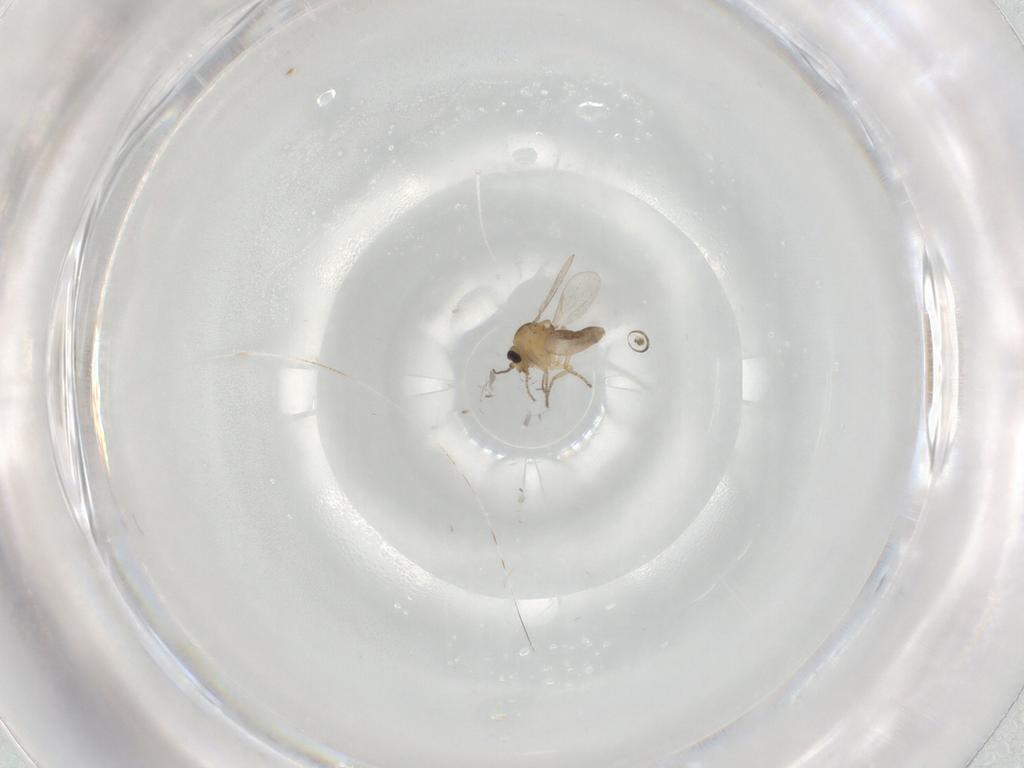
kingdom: Animalia
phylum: Arthropoda
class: Insecta
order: Diptera
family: Ceratopogonidae
